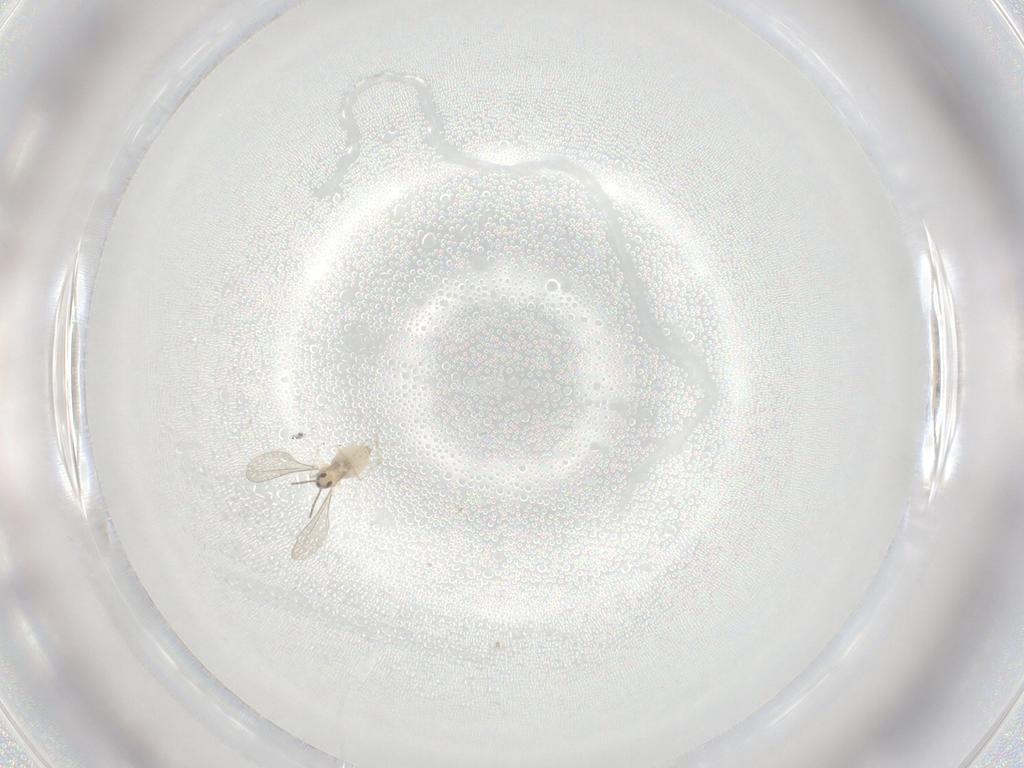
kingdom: Animalia
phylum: Arthropoda
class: Insecta
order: Diptera
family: Cecidomyiidae
